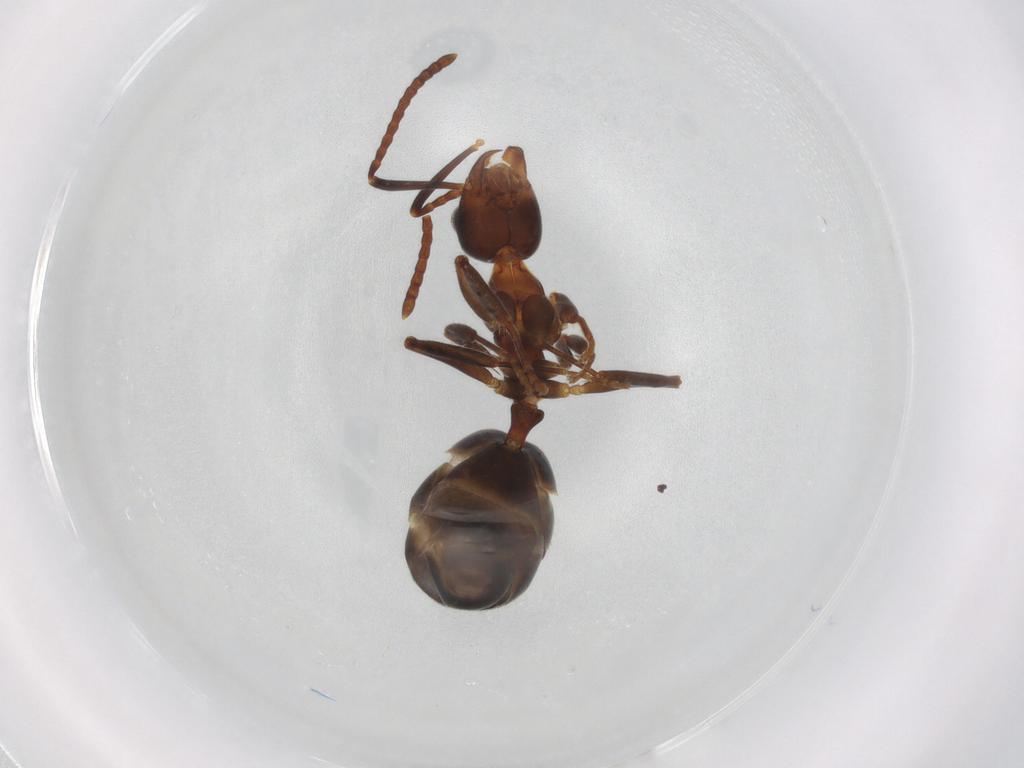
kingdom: Animalia
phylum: Arthropoda
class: Insecta
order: Hymenoptera
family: Formicidae
